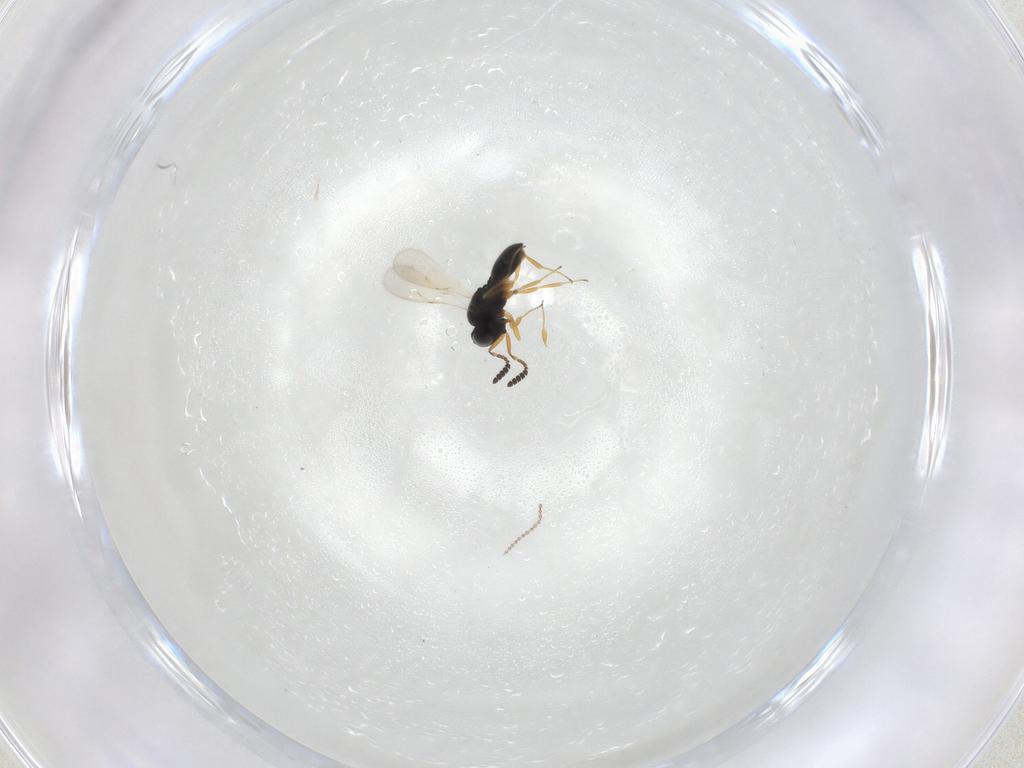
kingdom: Animalia
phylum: Arthropoda
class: Insecta
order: Hymenoptera
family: Scelionidae
